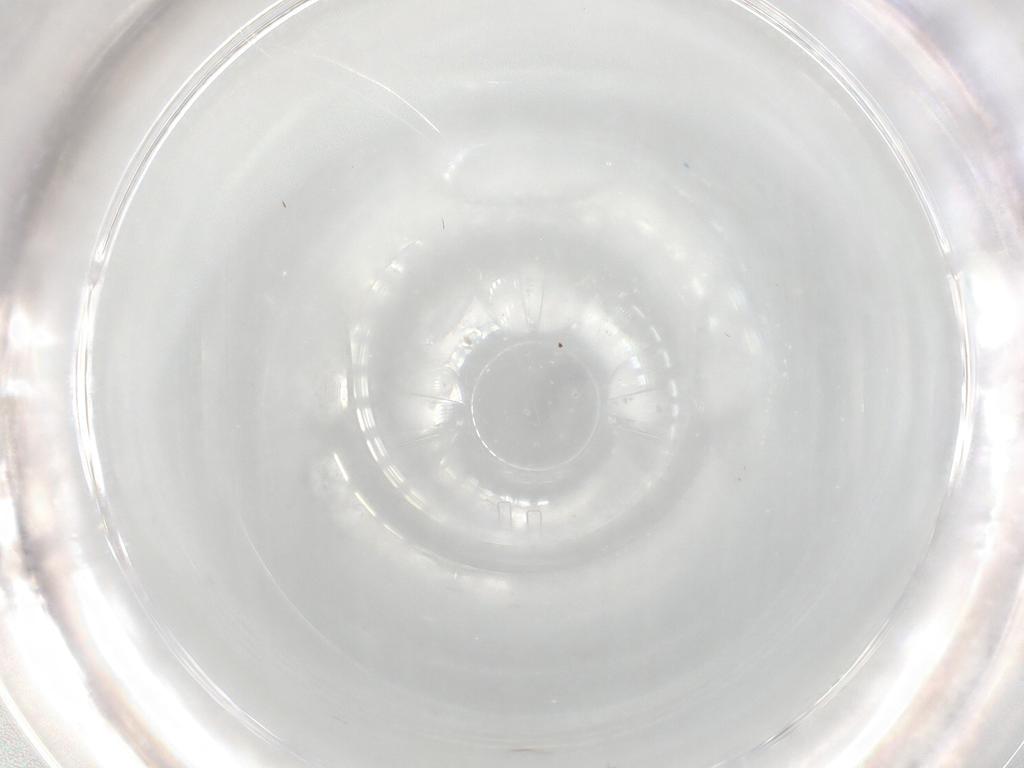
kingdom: Animalia
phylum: Arthropoda
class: Insecta
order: Diptera
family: Sphaeroceridae
